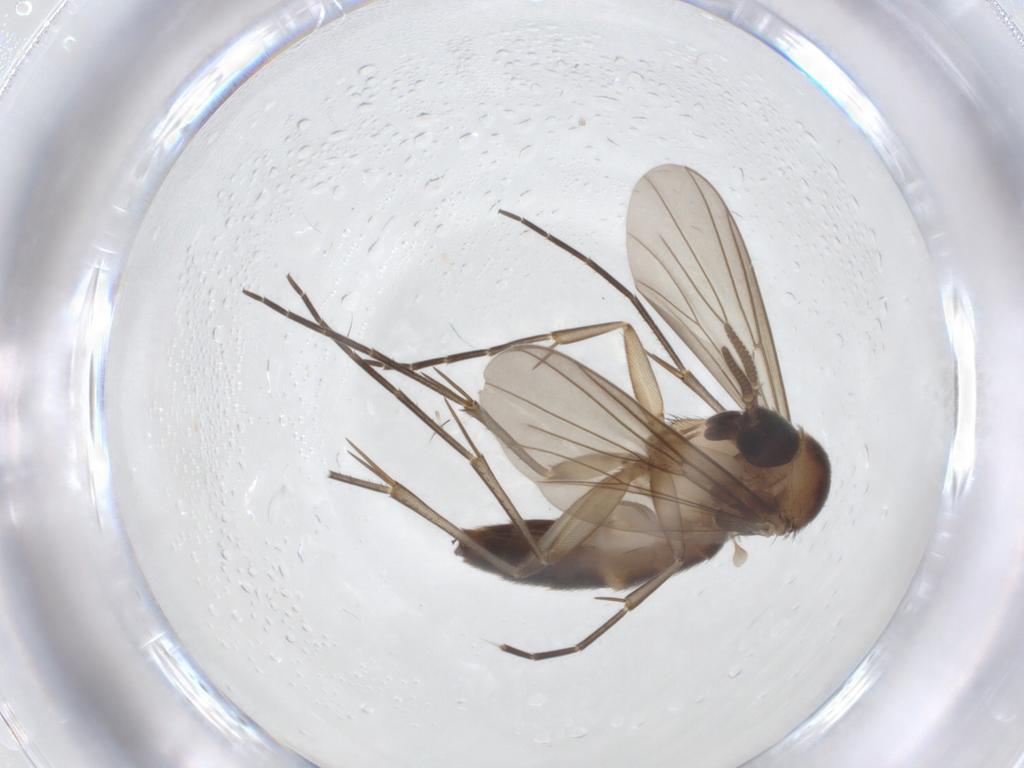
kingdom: Animalia
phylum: Arthropoda
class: Insecta
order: Diptera
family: Mycetophilidae
